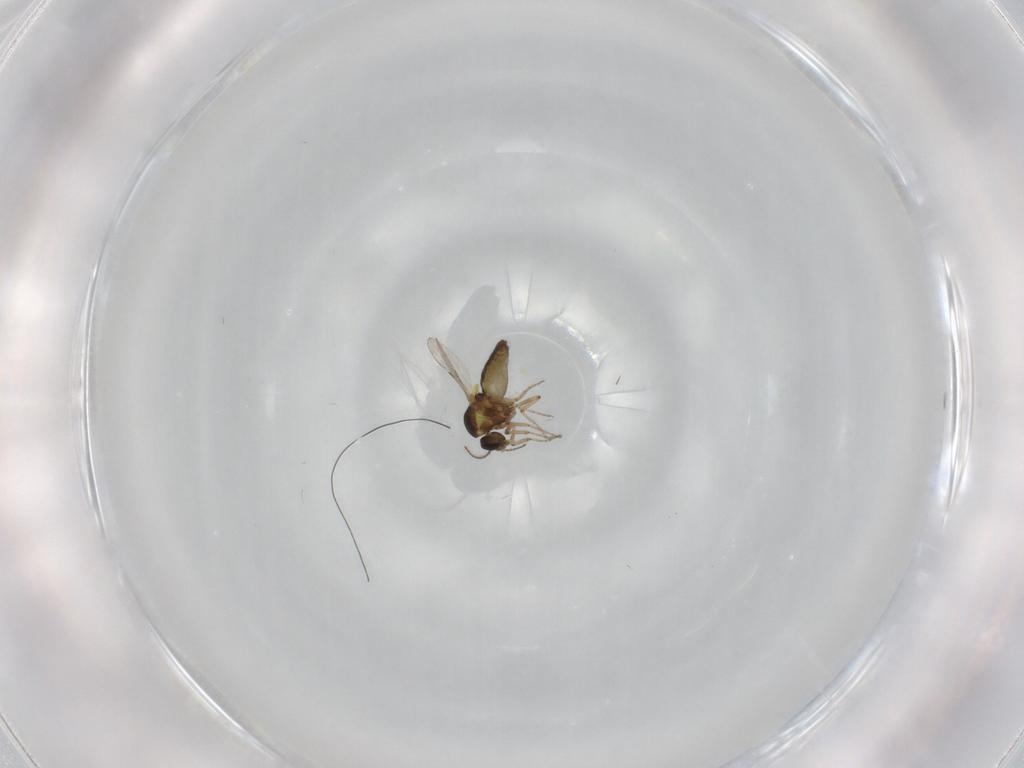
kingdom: Animalia
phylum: Arthropoda
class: Insecta
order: Diptera
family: Ceratopogonidae
